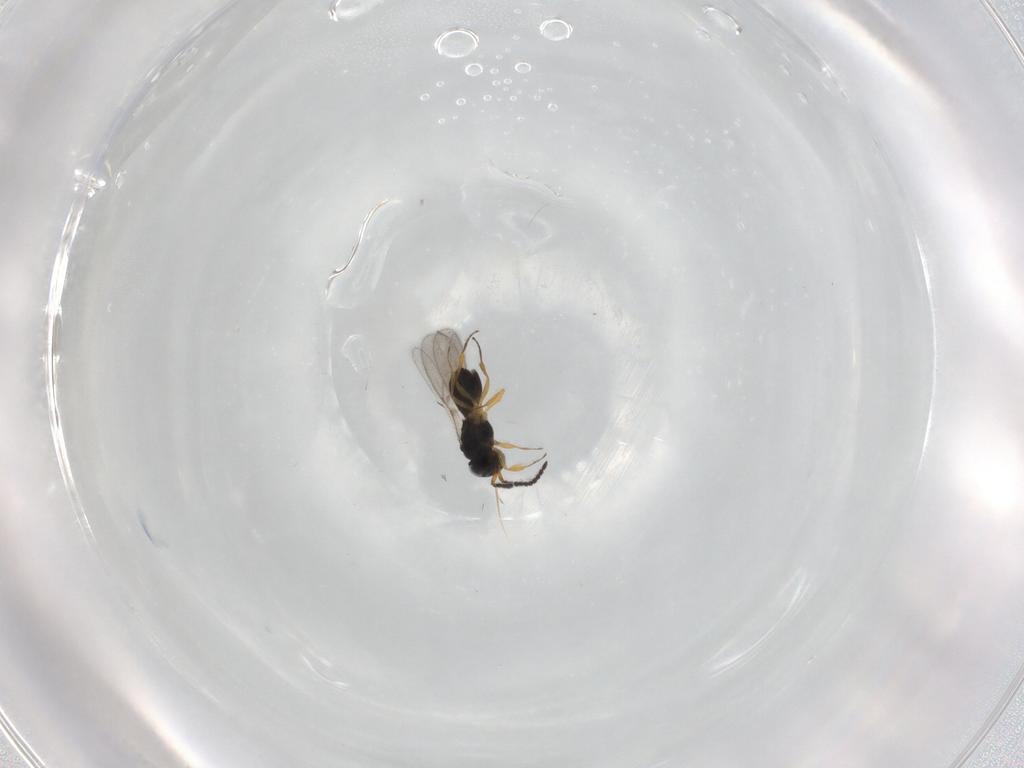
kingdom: Animalia
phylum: Arthropoda
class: Insecta
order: Hymenoptera
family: Scelionidae
